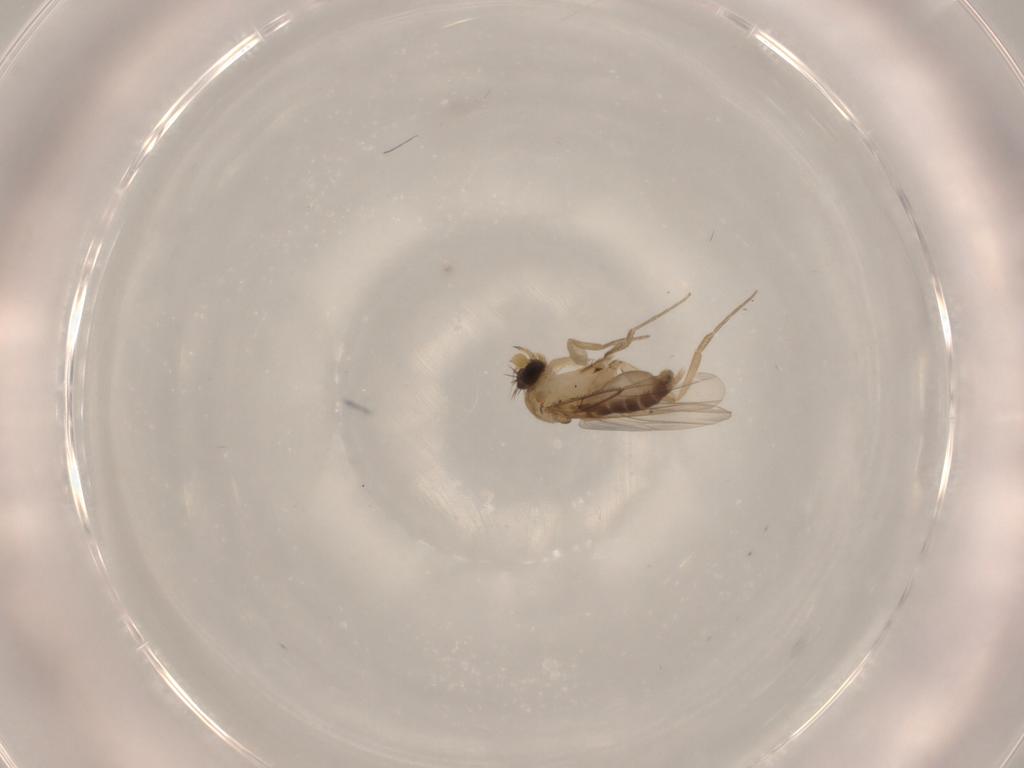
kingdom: Animalia
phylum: Arthropoda
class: Insecta
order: Diptera
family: Phoridae
